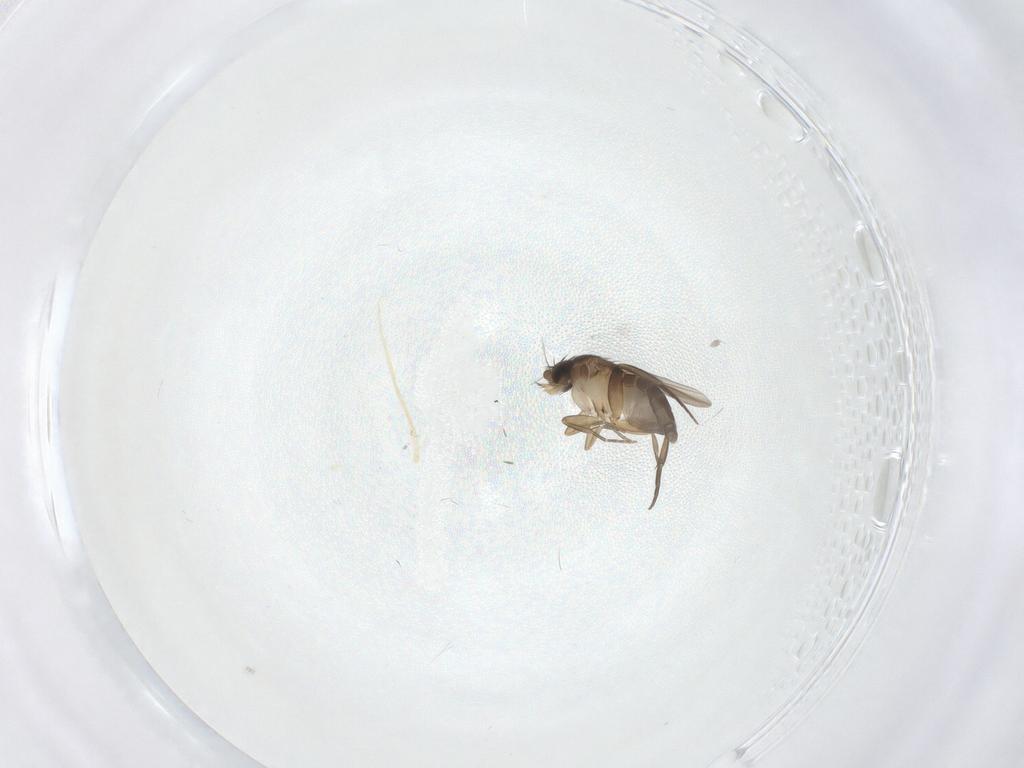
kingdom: Animalia
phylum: Arthropoda
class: Insecta
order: Diptera
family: Phoridae
